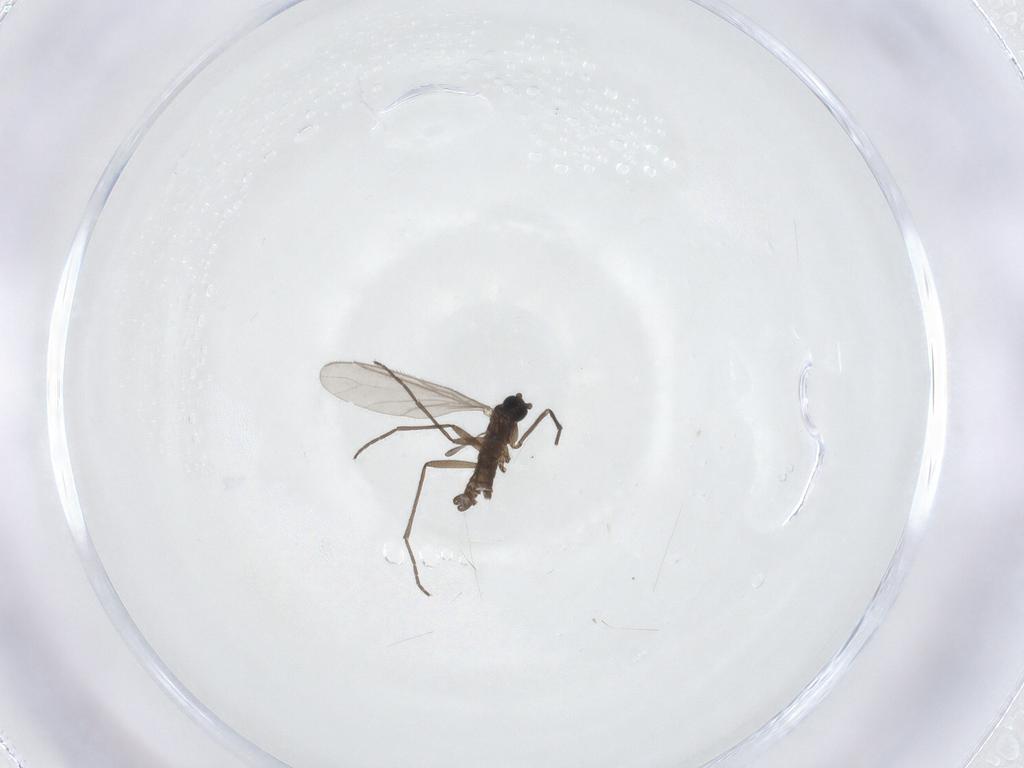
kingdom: Animalia
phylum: Arthropoda
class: Insecta
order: Diptera
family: Sciaridae
